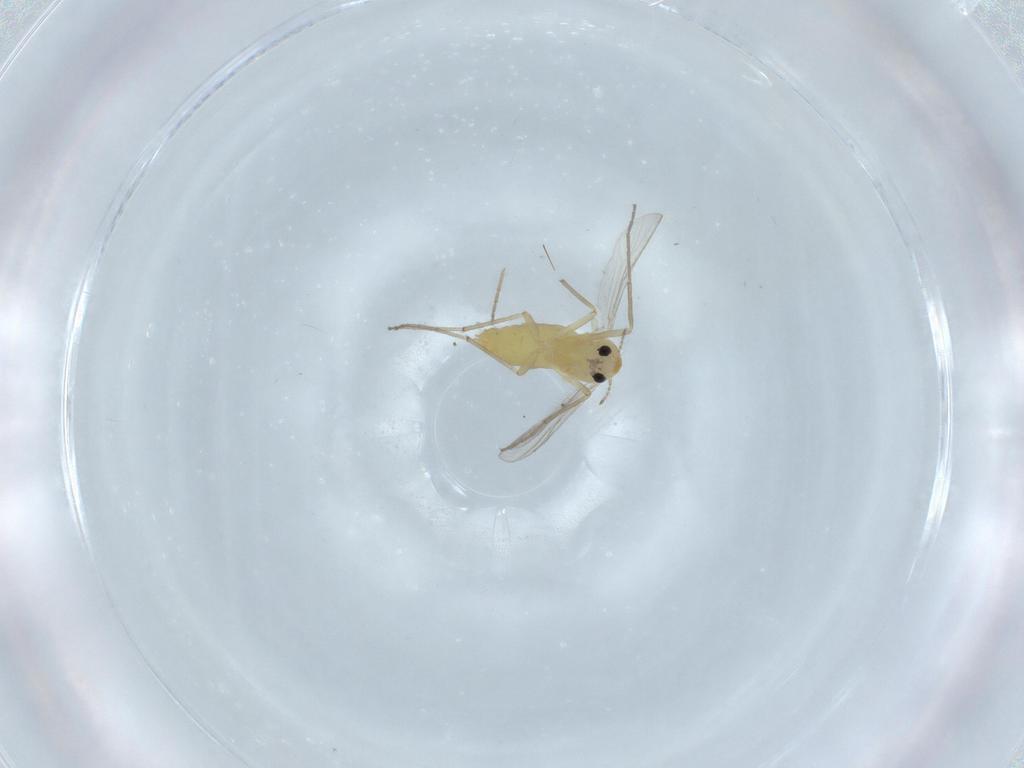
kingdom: Animalia
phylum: Arthropoda
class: Insecta
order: Diptera
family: Chironomidae
